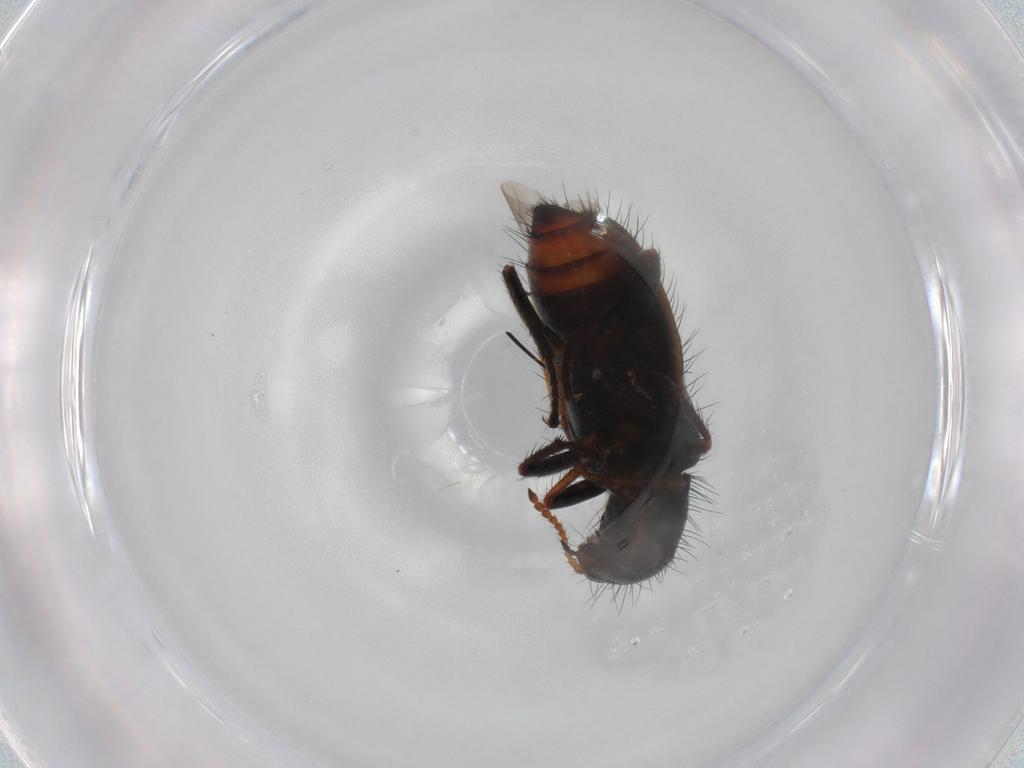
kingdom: Animalia
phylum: Arthropoda
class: Insecta
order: Coleoptera
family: Melyridae
